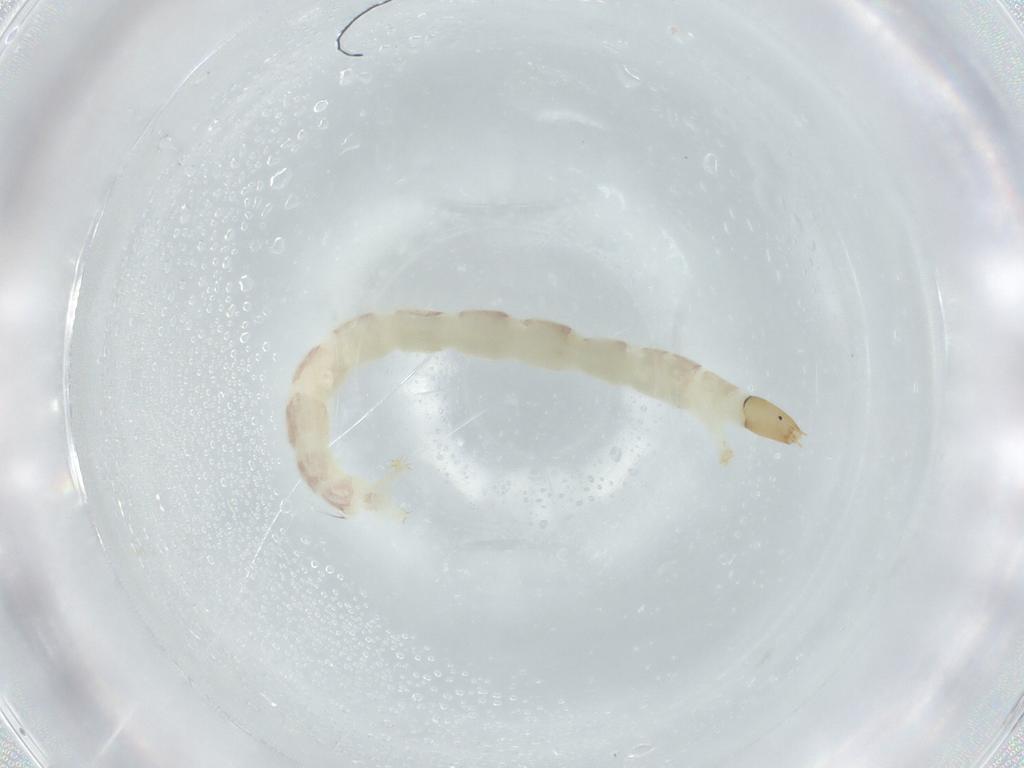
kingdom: Animalia
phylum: Arthropoda
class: Insecta
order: Diptera
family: Chironomidae
